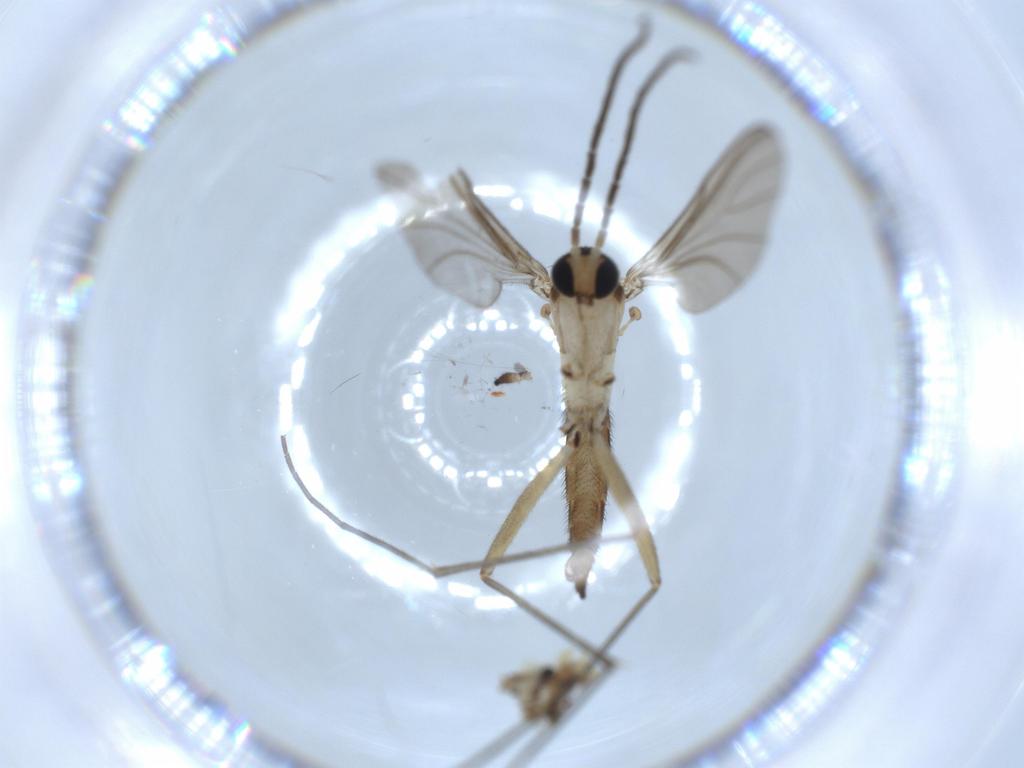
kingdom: Animalia
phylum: Arthropoda
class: Insecta
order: Diptera
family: Sciaridae
